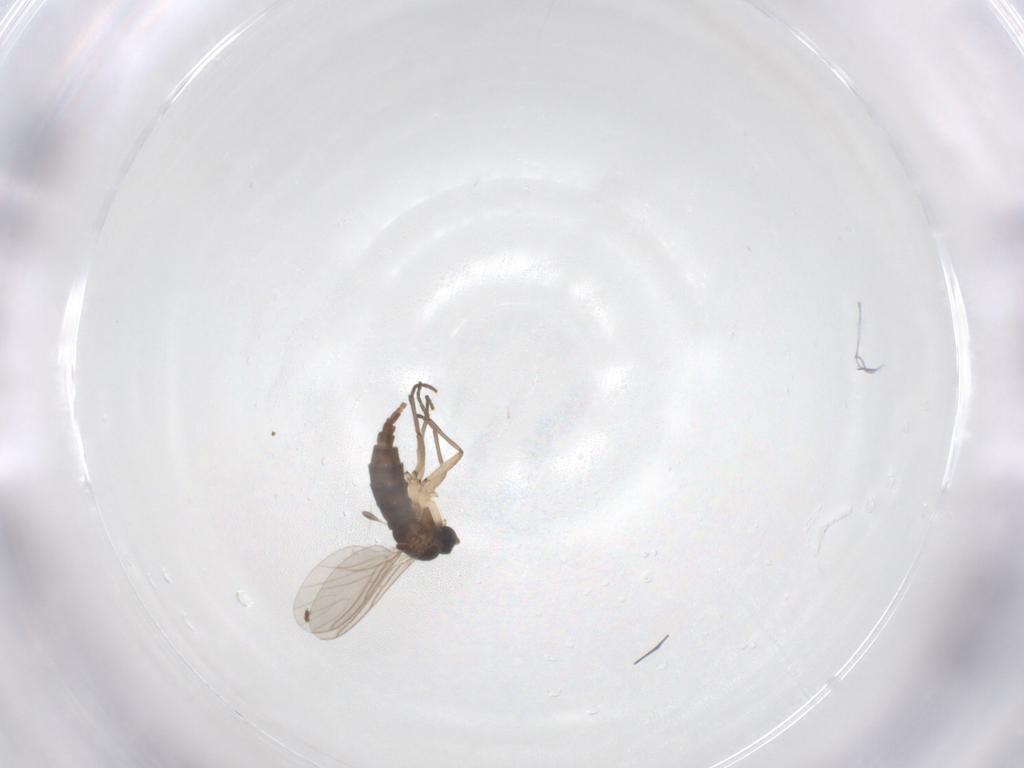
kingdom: Animalia
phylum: Arthropoda
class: Insecta
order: Diptera
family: Sciaridae
